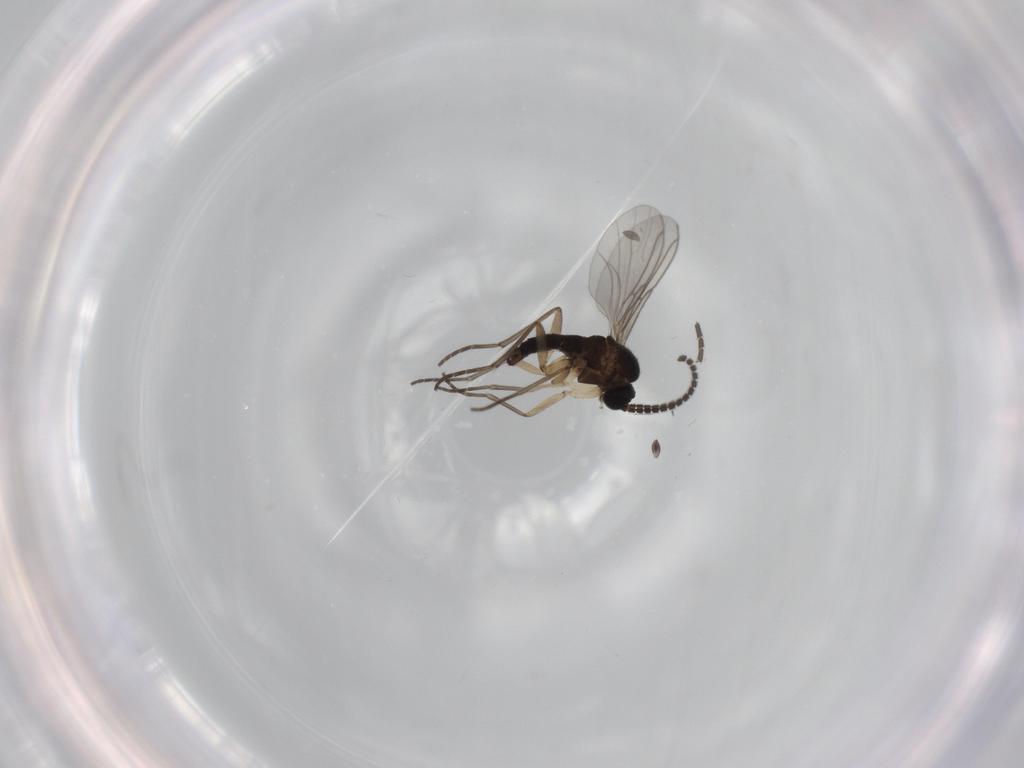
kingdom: Animalia
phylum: Arthropoda
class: Insecta
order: Diptera
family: Sciaridae
